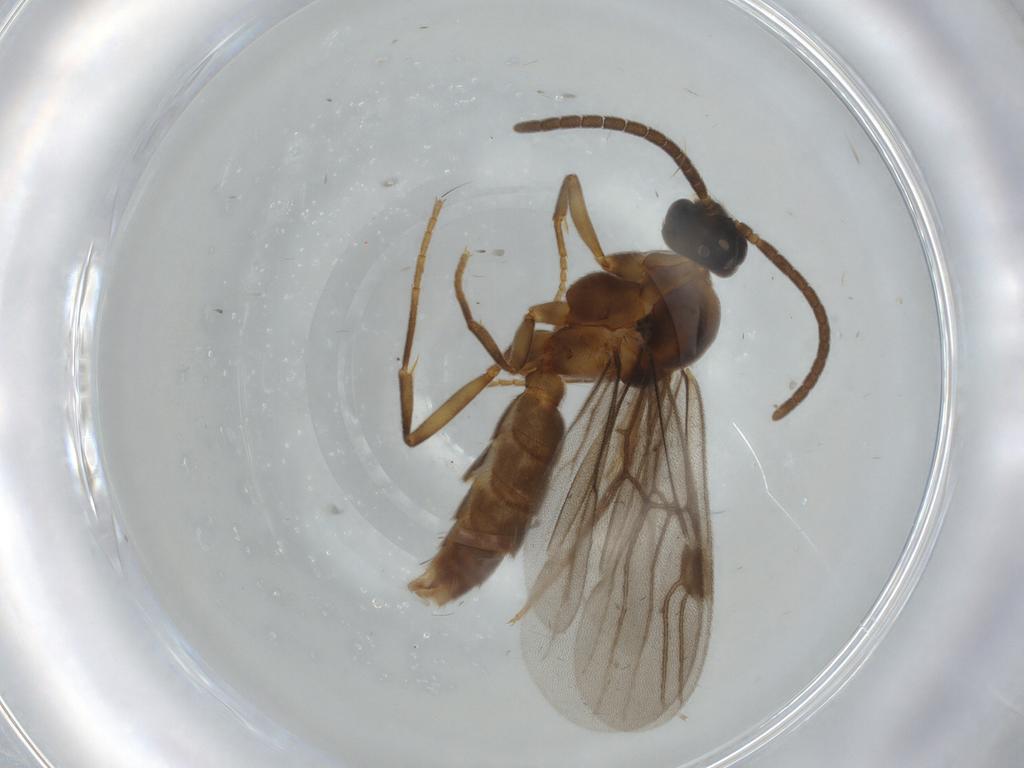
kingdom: Animalia
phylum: Arthropoda
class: Insecta
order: Hymenoptera
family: Formicidae
